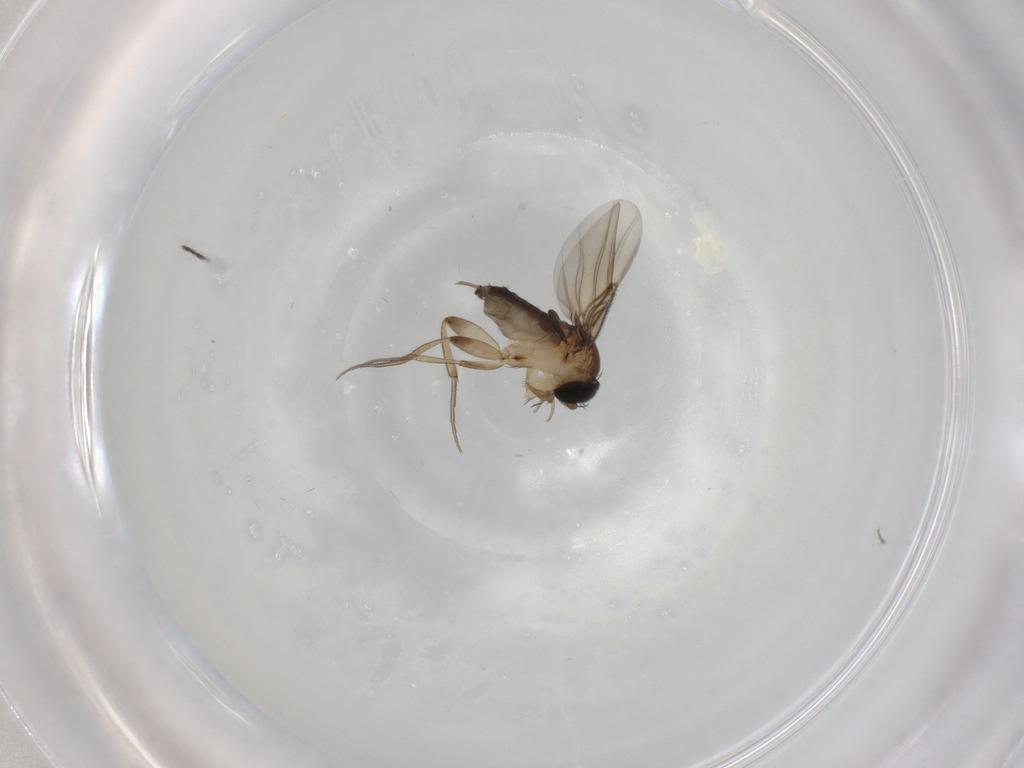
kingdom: Animalia
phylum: Arthropoda
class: Insecta
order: Diptera
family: Phoridae
